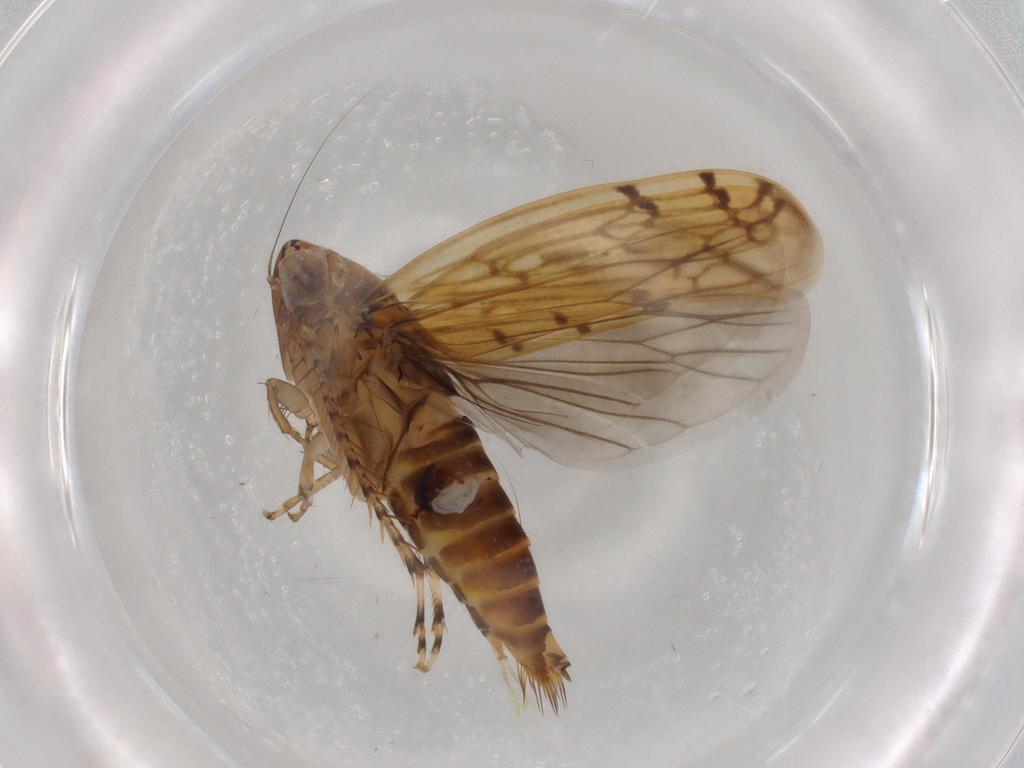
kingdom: Animalia
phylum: Arthropoda
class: Insecta
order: Hemiptera
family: Cicadellidae
